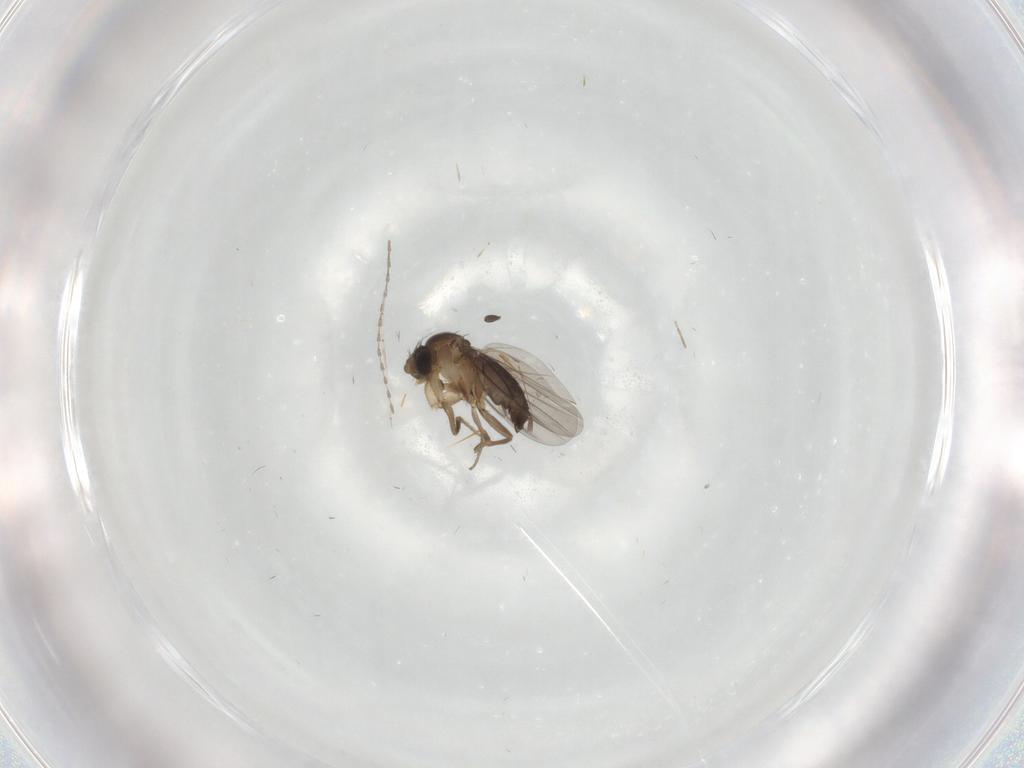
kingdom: Animalia
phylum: Arthropoda
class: Insecta
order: Diptera
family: Phoridae
